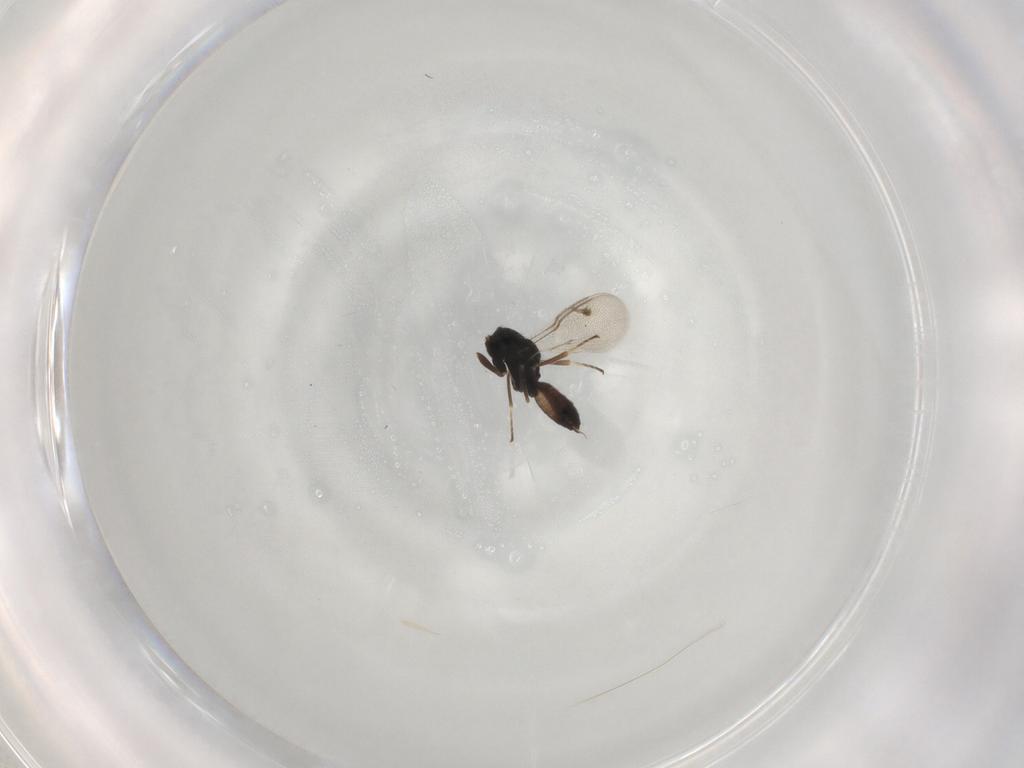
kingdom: Animalia
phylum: Arthropoda
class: Insecta
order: Hymenoptera
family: Pteromalidae
